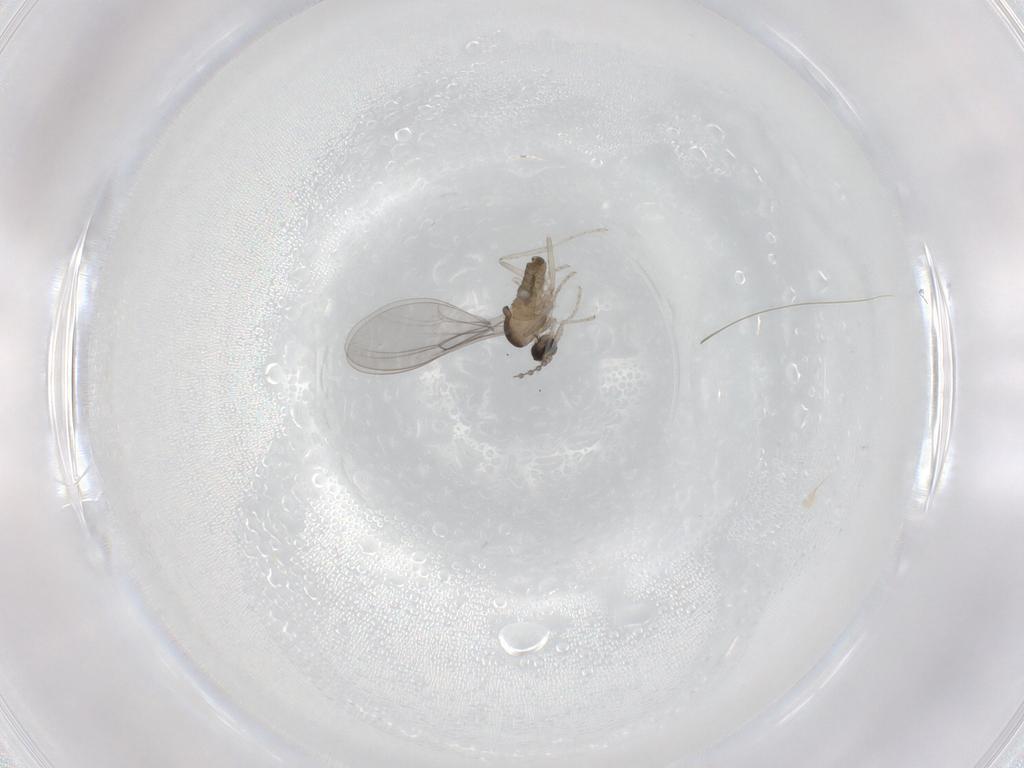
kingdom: Animalia
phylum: Arthropoda
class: Insecta
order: Diptera
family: Cecidomyiidae
